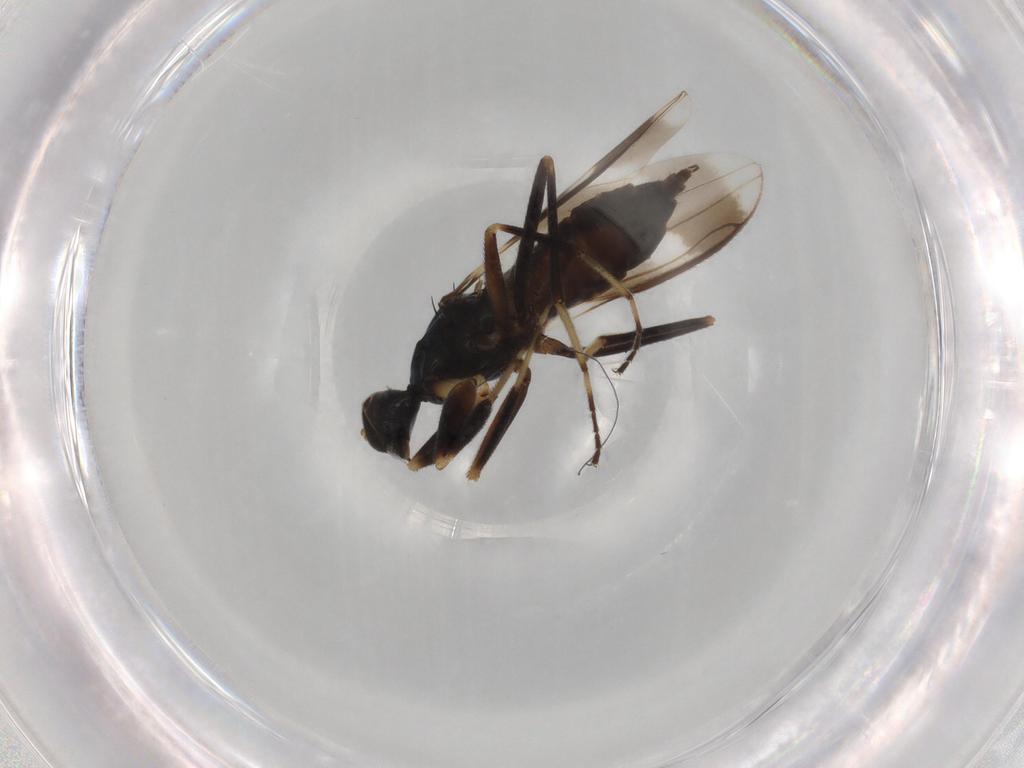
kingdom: Animalia
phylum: Arthropoda
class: Insecta
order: Diptera
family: Hybotidae
